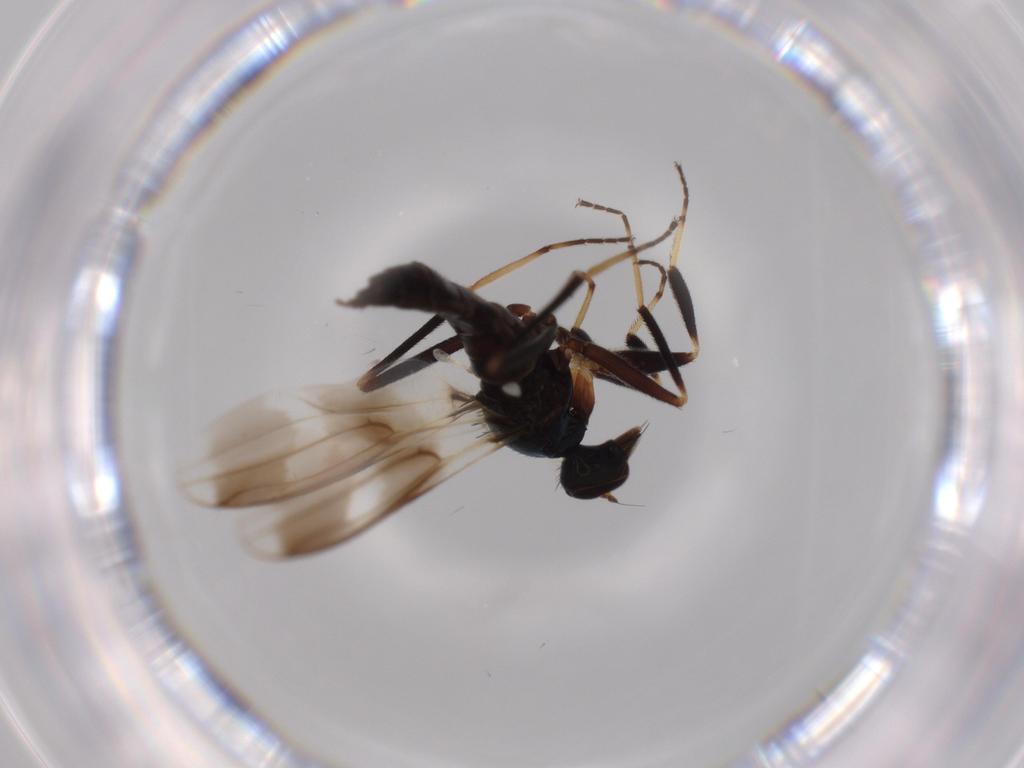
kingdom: Animalia
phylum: Arthropoda
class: Insecta
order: Diptera
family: Hybotidae
